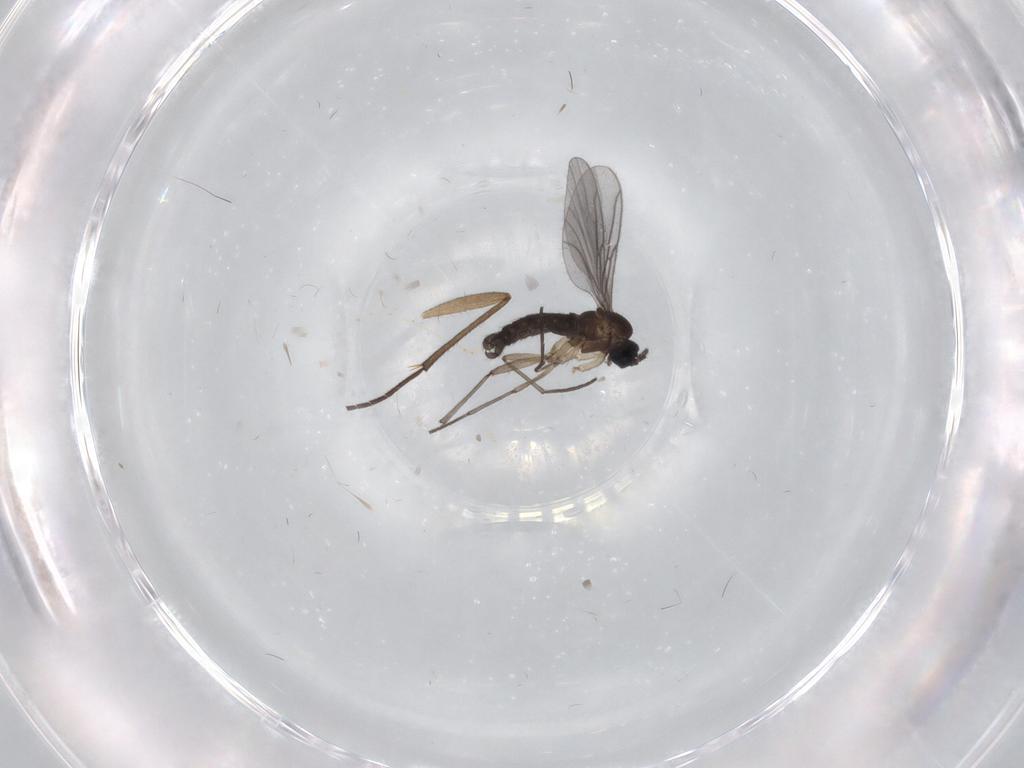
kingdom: Animalia
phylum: Arthropoda
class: Insecta
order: Diptera
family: Sciaridae
